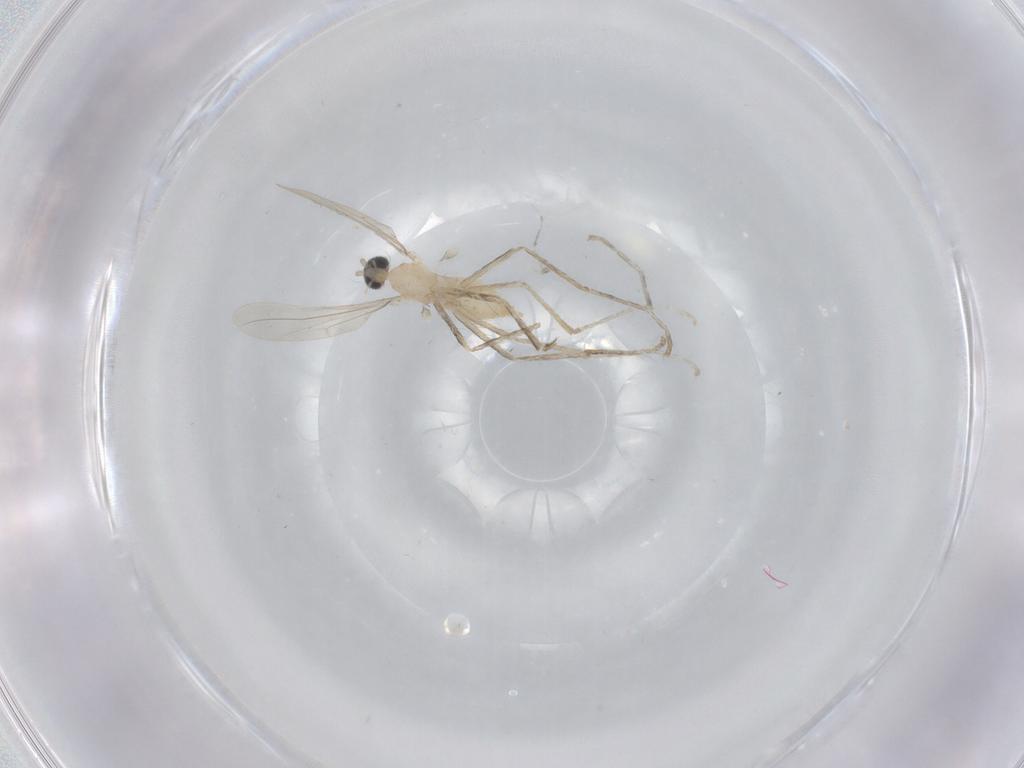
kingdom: Animalia
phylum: Arthropoda
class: Insecta
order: Diptera
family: Cecidomyiidae
